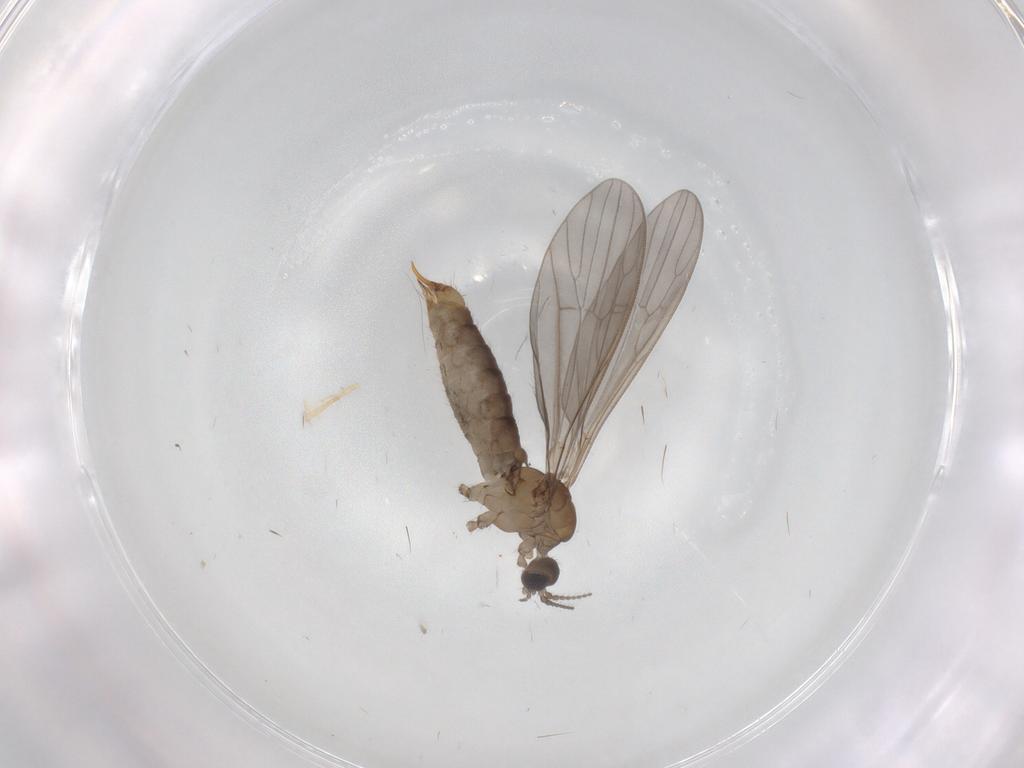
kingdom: Animalia
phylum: Arthropoda
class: Insecta
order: Diptera
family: Limoniidae
